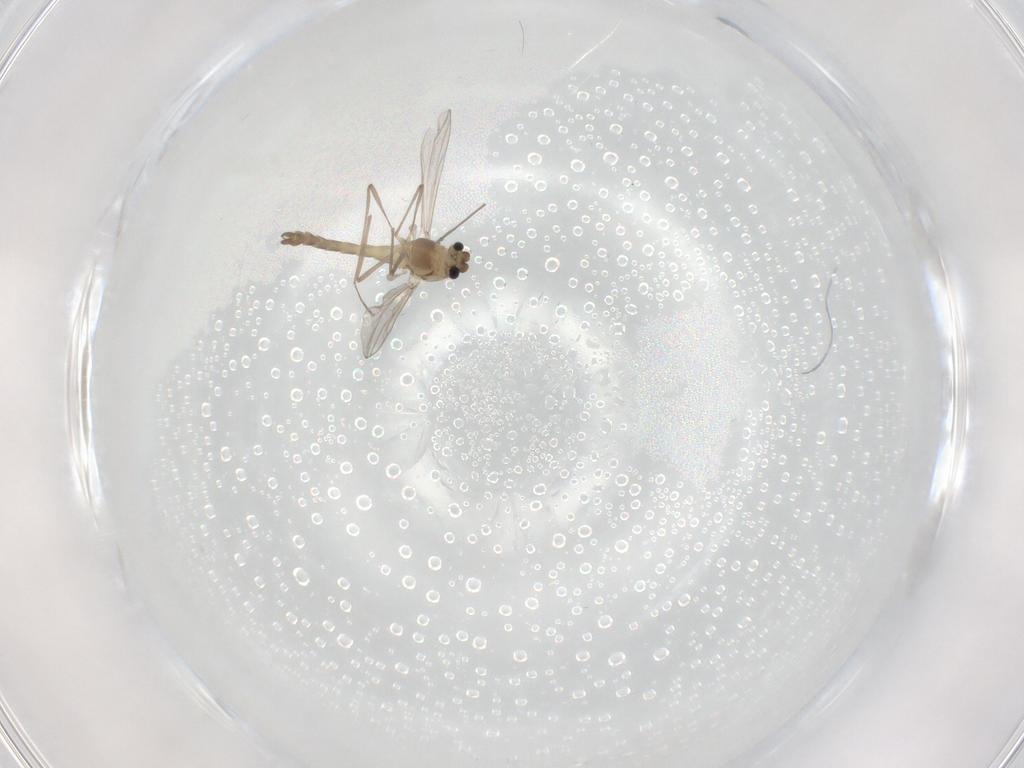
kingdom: Animalia
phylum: Arthropoda
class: Insecta
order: Diptera
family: Chironomidae
